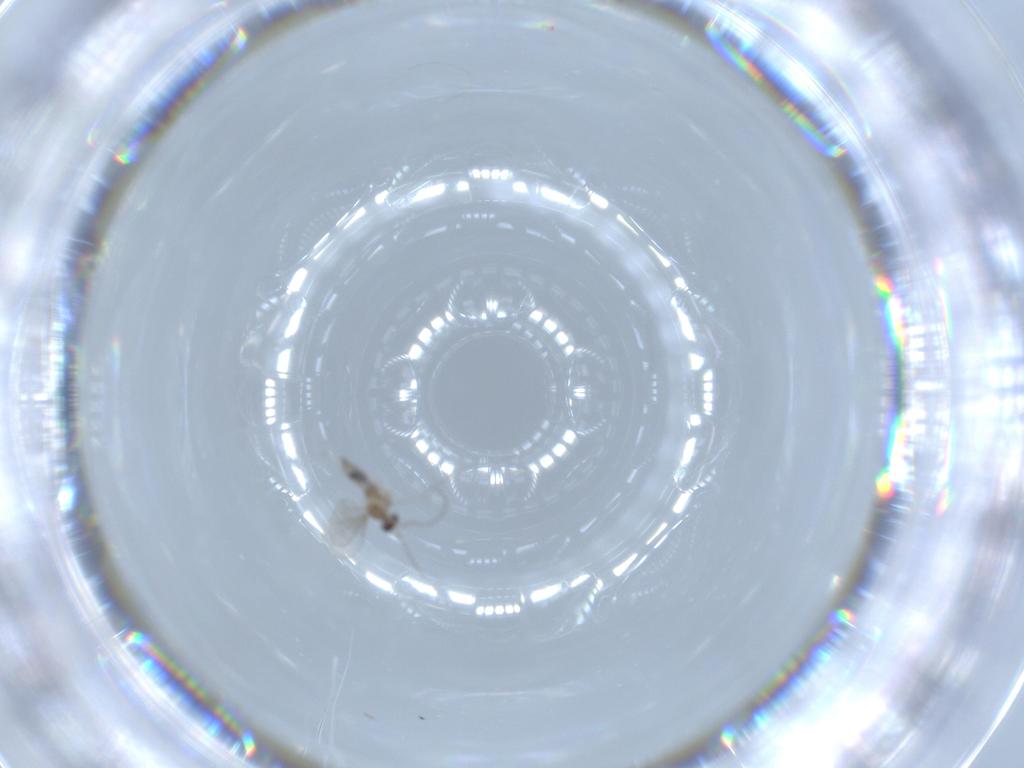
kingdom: Animalia
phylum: Arthropoda
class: Insecta
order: Diptera
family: Cecidomyiidae
